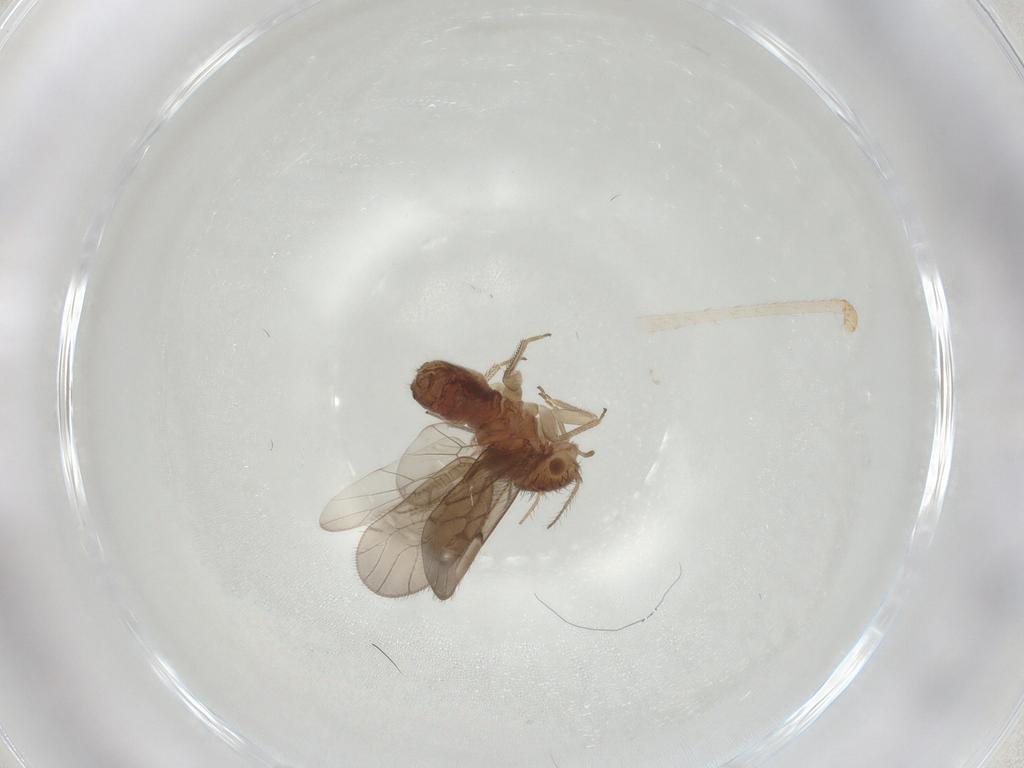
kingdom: Animalia
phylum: Arthropoda
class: Insecta
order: Psocodea
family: Ectopsocidae
